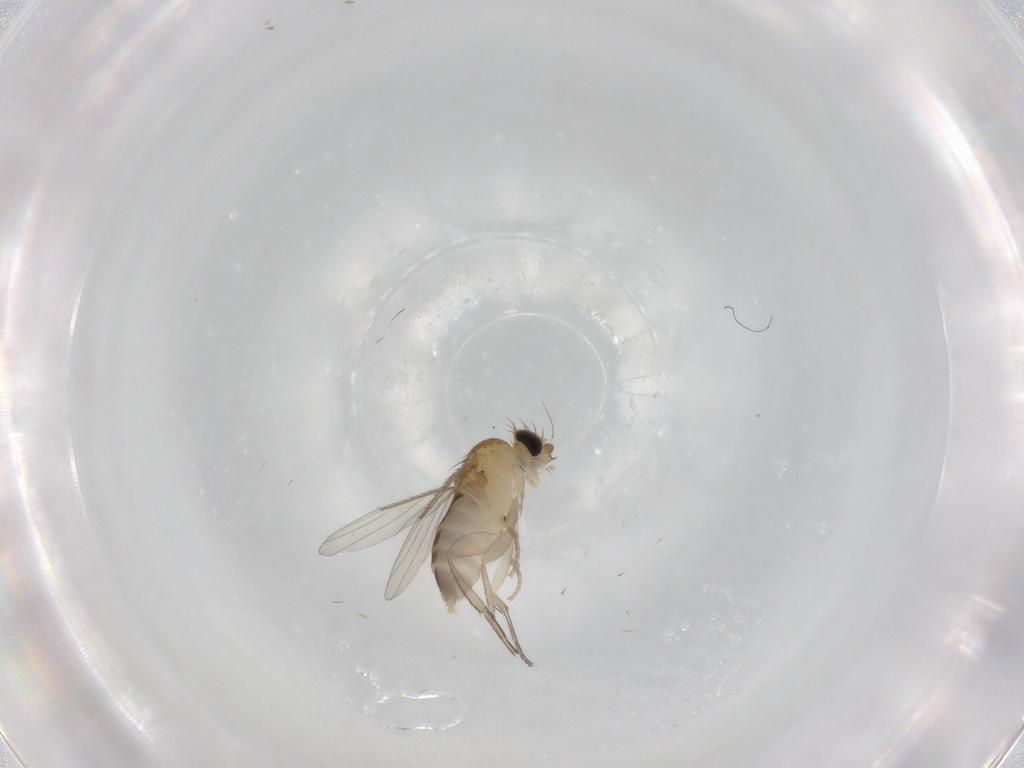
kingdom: Animalia
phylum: Arthropoda
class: Insecta
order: Diptera
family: Phoridae
